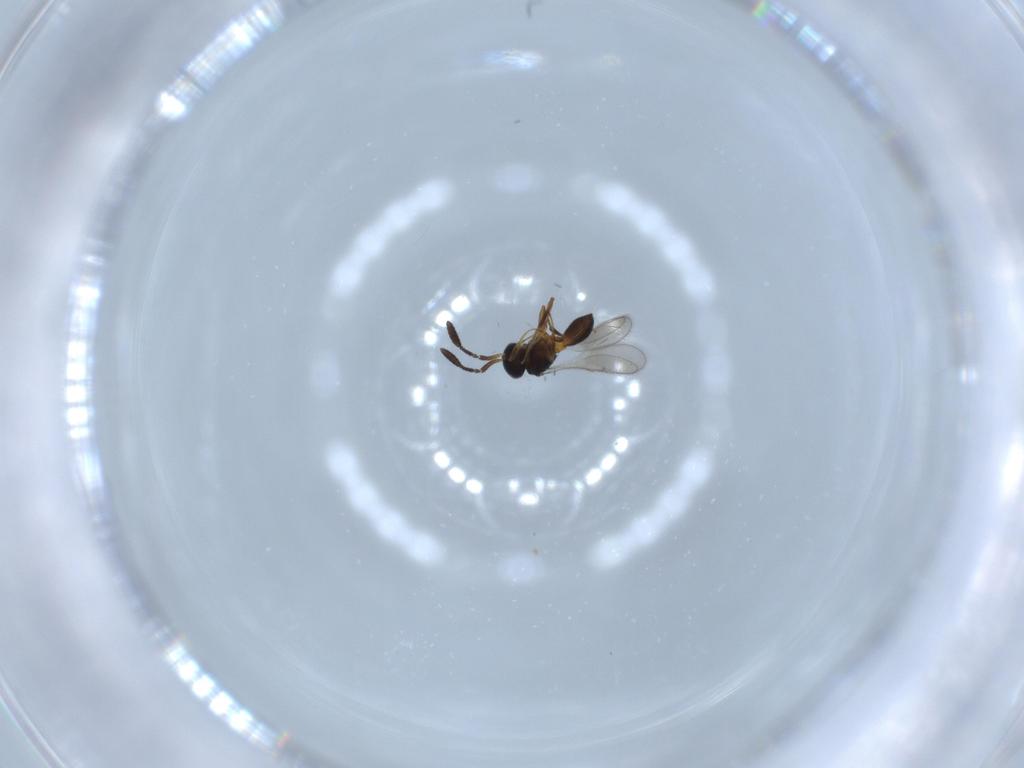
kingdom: Animalia
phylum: Arthropoda
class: Insecta
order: Hymenoptera
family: Scelionidae
